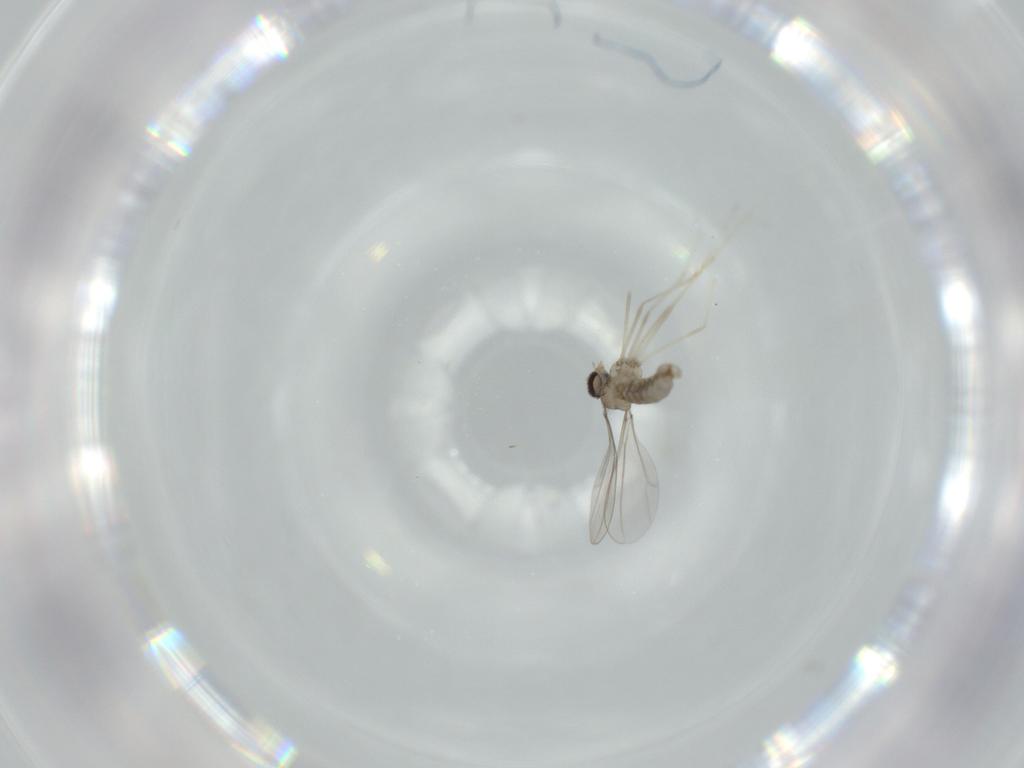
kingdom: Animalia
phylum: Arthropoda
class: Insecta
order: Diptera
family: Cecidomyiidae
